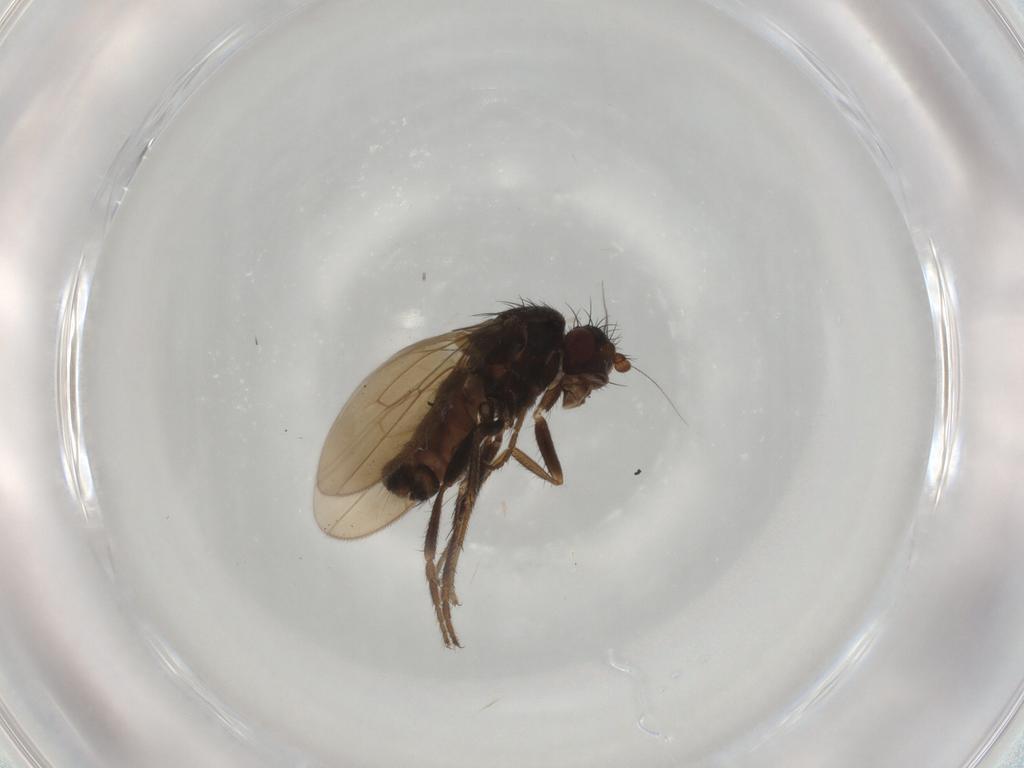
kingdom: Animalia
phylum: Arthropoda
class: Insecta
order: Diptera
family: Sphaeroceridae
